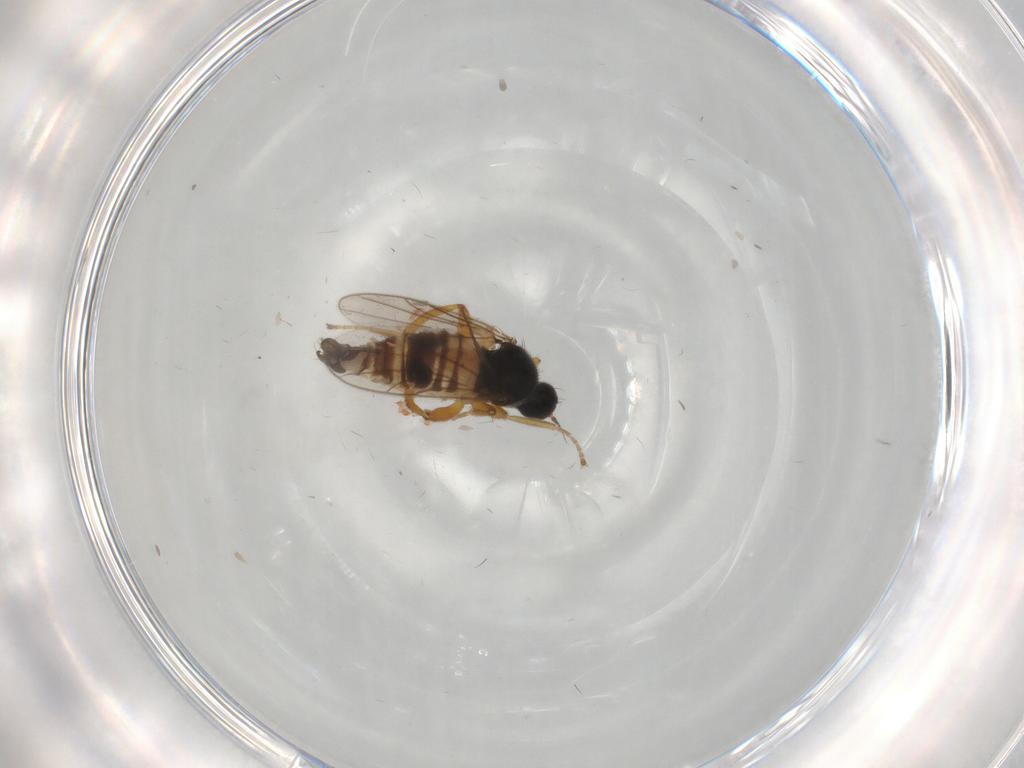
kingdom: Animalia
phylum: Arthropoda
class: Insecta
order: Diptera
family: Hybotidae
